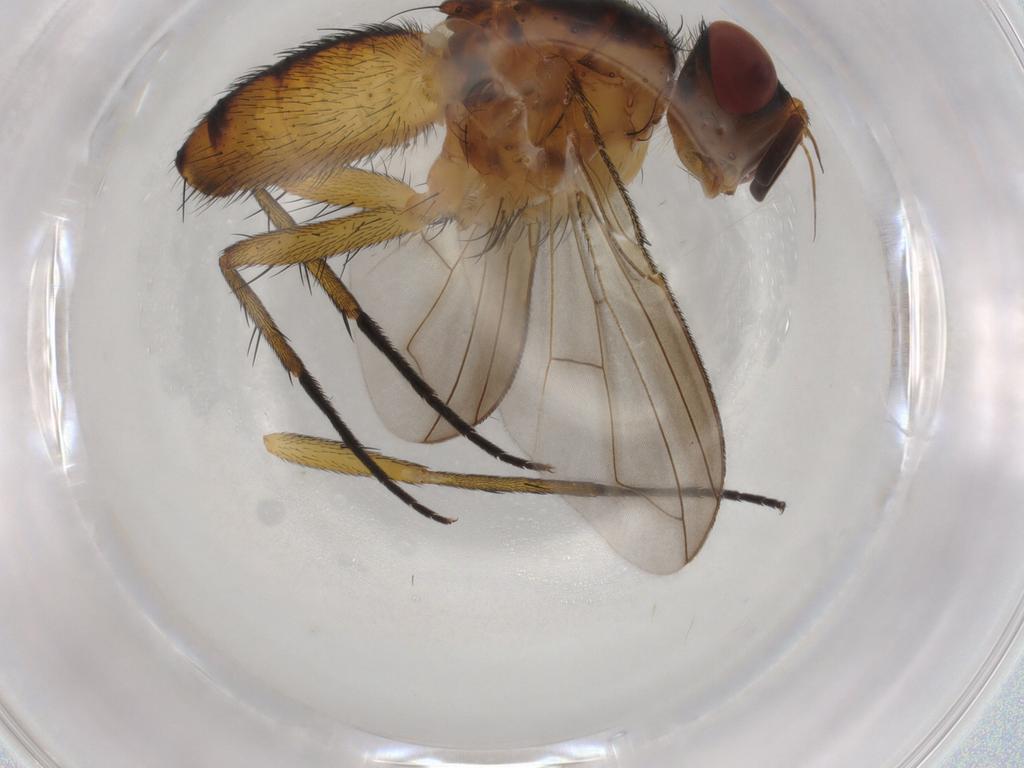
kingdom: Animalia
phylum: Arthropoda
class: Insecta
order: Diptera
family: Tachinidae
